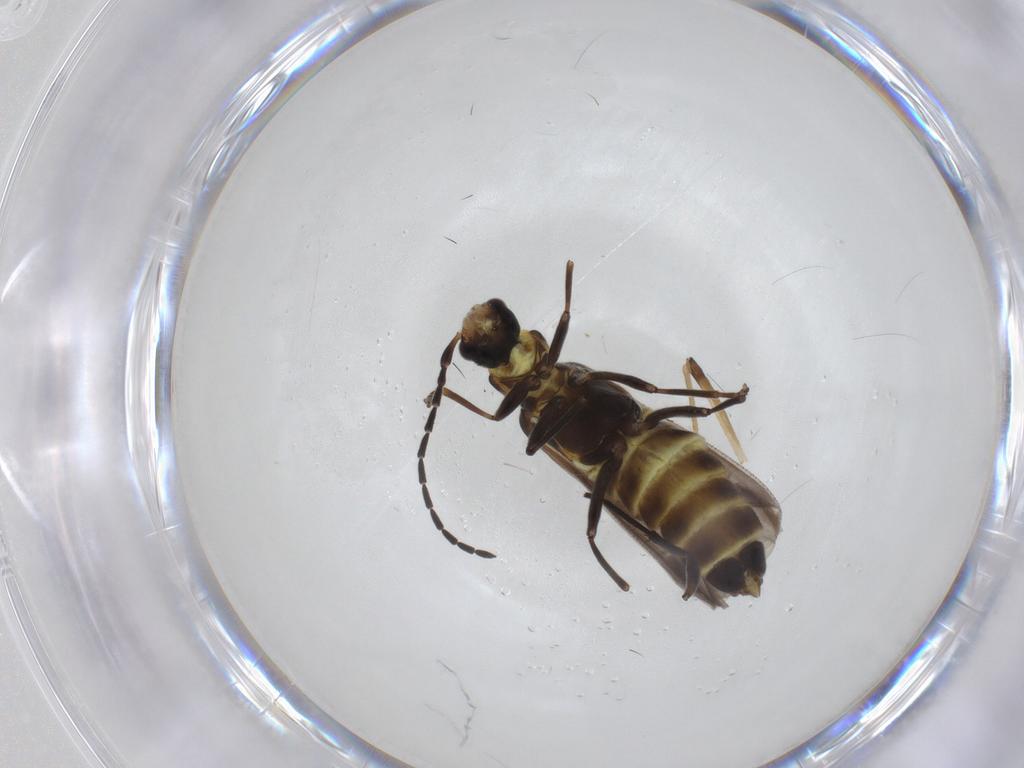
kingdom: Animalia
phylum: Arthropoda
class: Insecta
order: Coleoptera
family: Cantharidae
